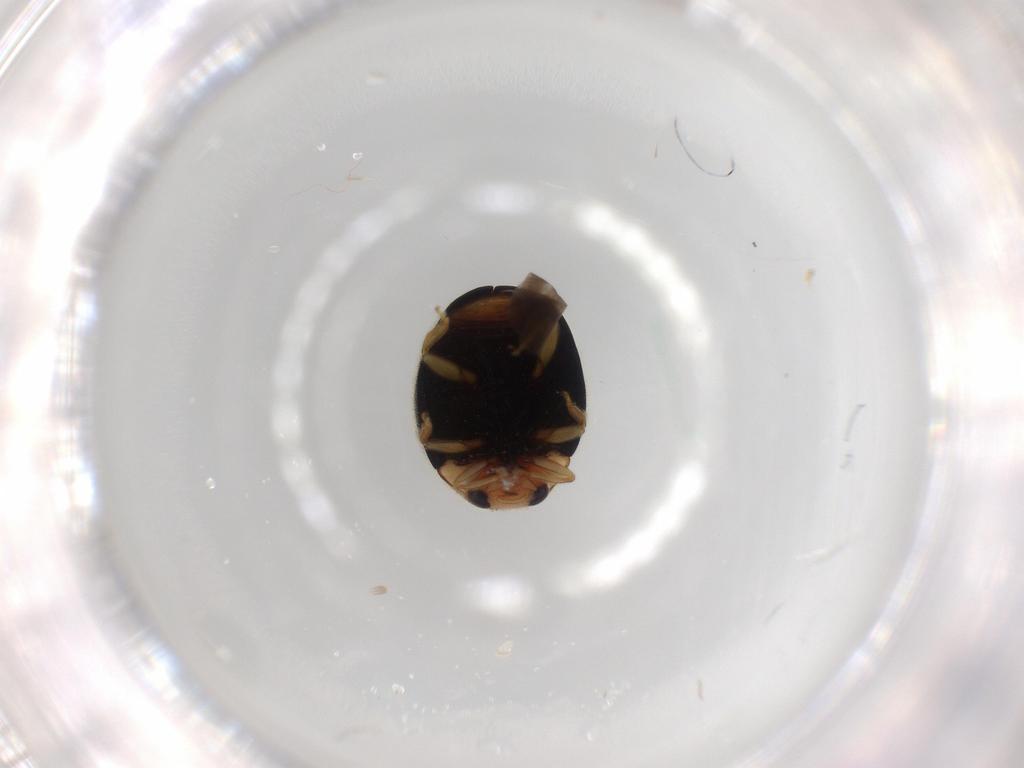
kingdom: Animalia
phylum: Arthropoda
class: Insecta
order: Coleoptera
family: Coccinellidae
